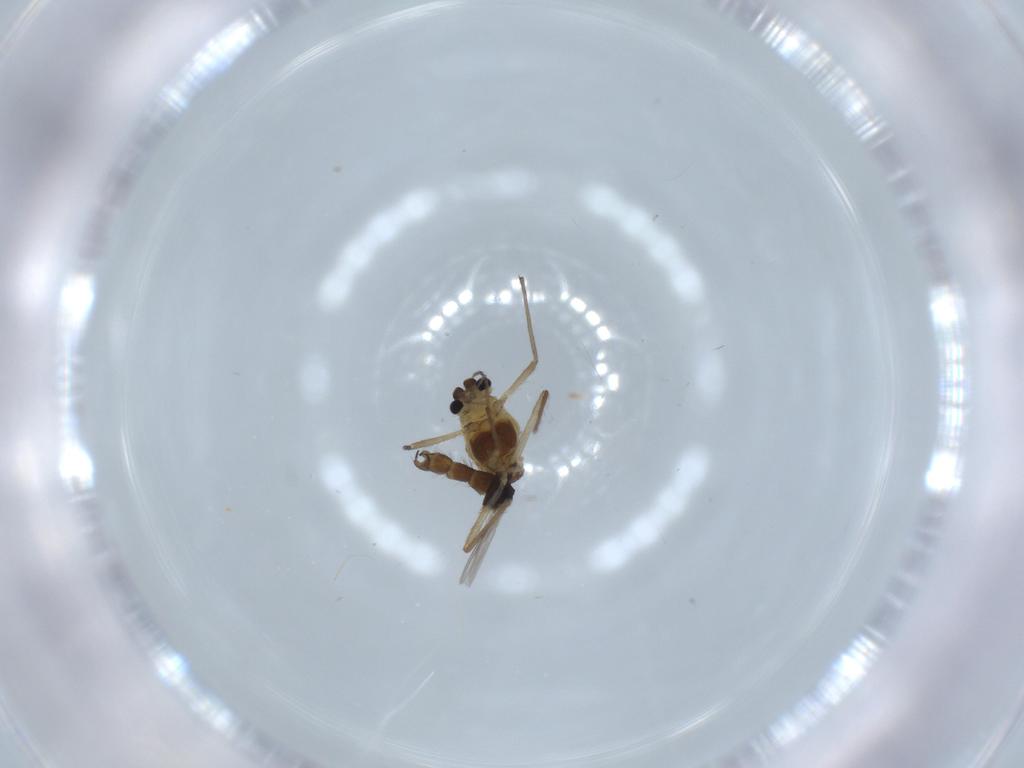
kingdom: Animalia
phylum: Arthropoda
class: Insecta
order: Diptera
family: Chironomidae
